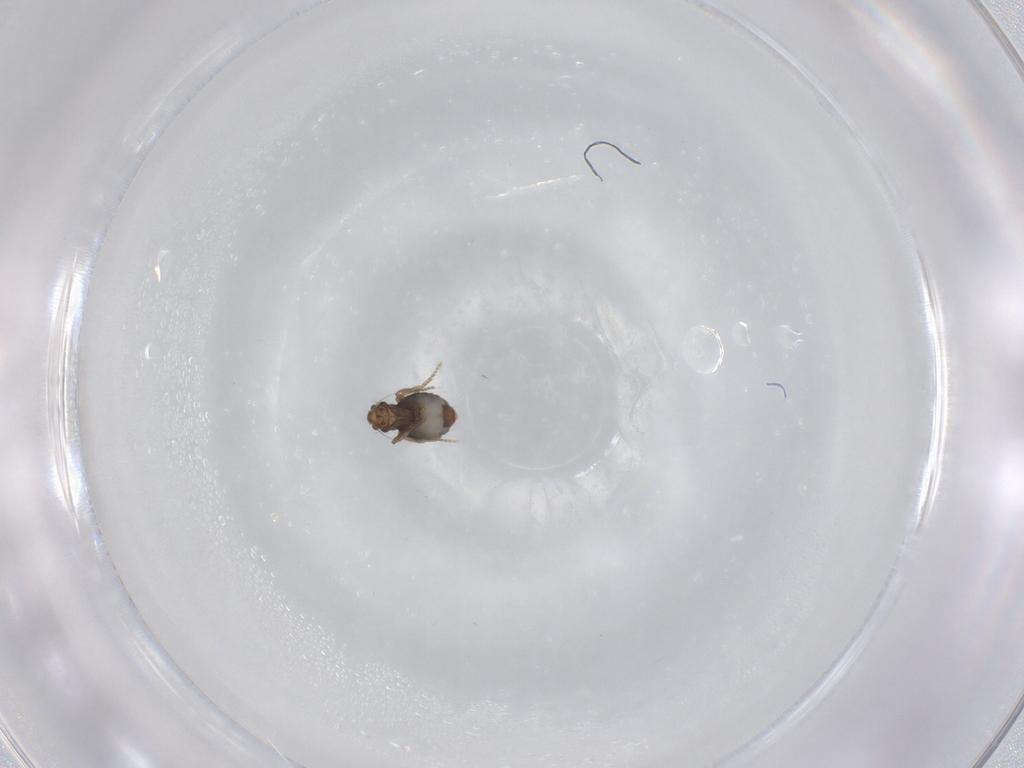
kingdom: Animalia
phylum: Arthropoda
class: Insecta
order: Diptera
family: Phoridae
